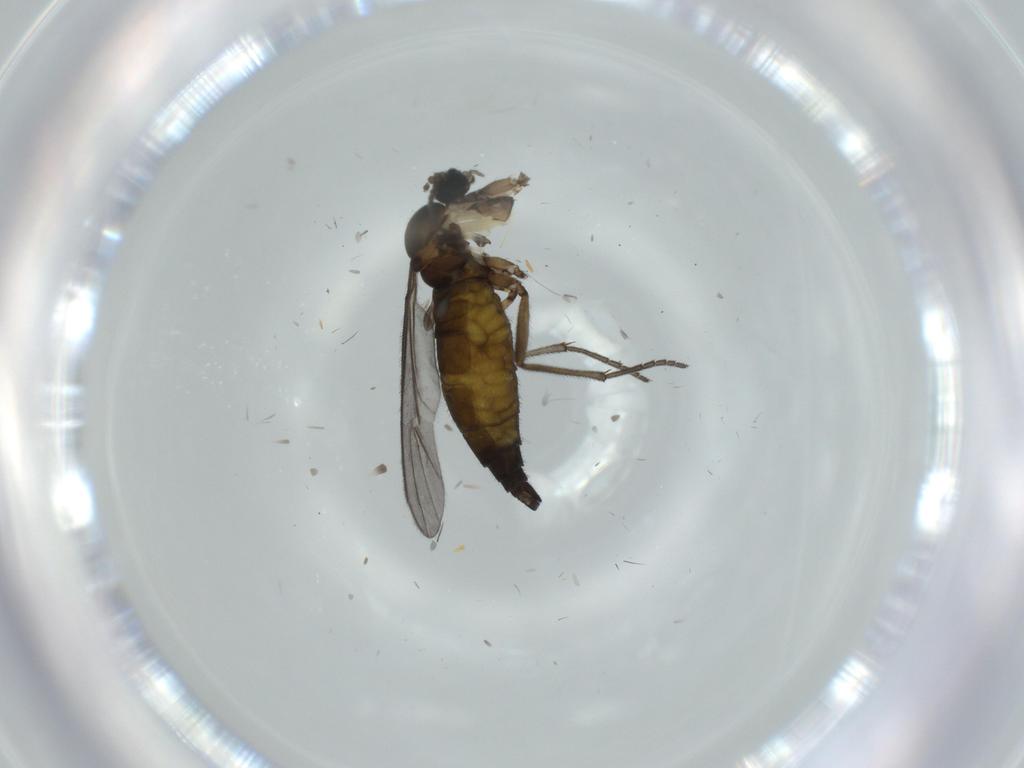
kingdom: Animalia
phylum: Arthropoda
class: Insecta
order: Diptera
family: Sciaridae
